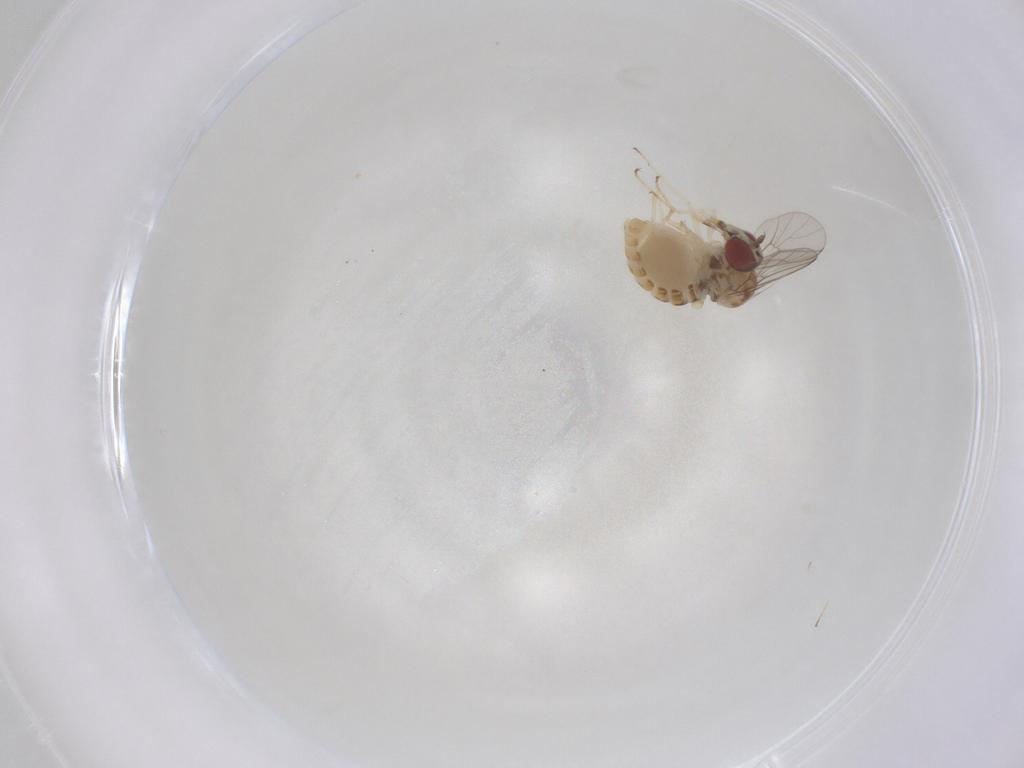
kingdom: Animalia
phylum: Arthropoda
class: Insecta
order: Diptera
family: Bombyliidae
